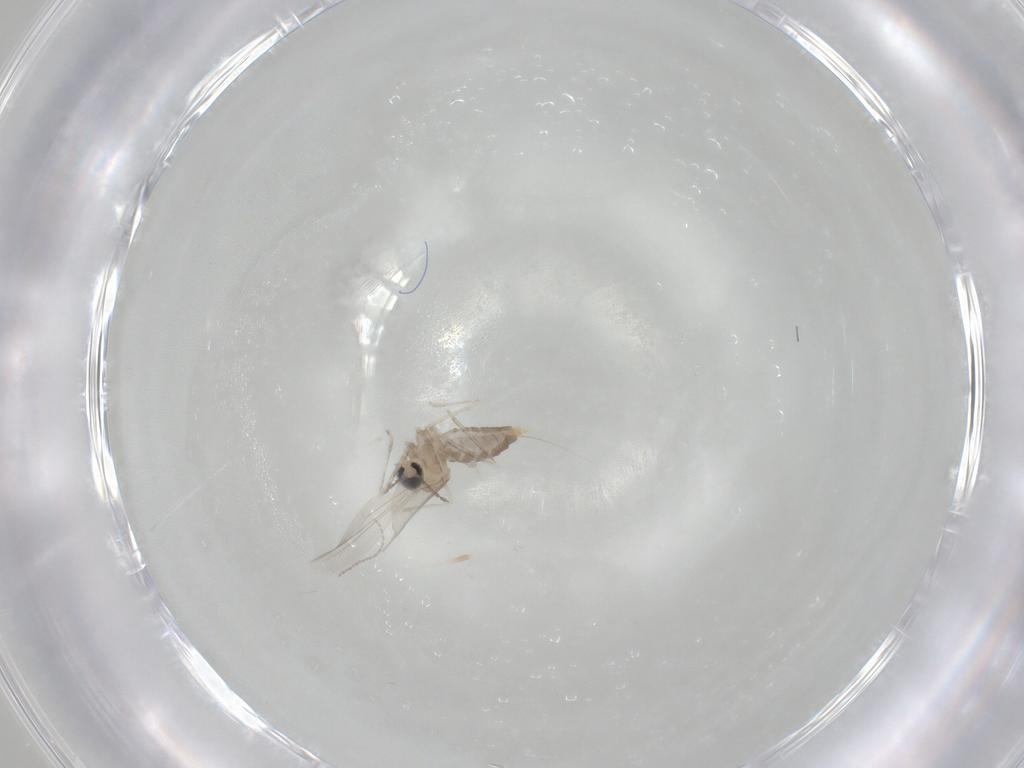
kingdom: Animalia
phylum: Arthropoda
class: Insecta
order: Diptera
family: Cecidomyiidae
